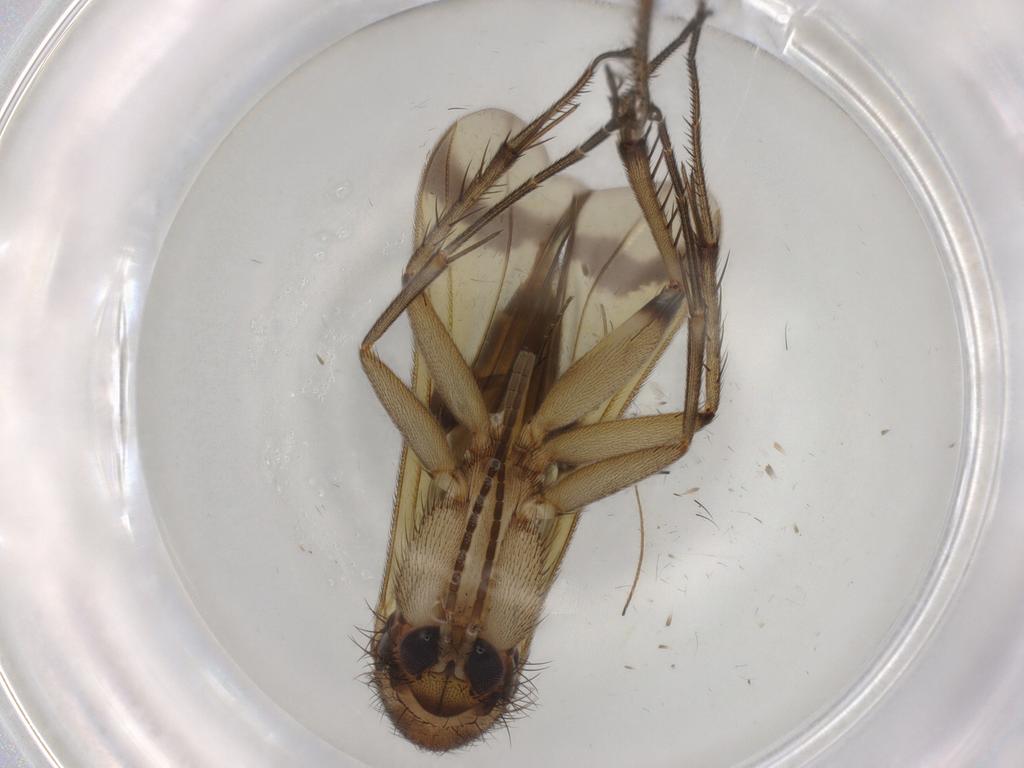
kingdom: Animalia
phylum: Arthropoda
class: Insecta
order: Diptera
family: Mycetophilidae
